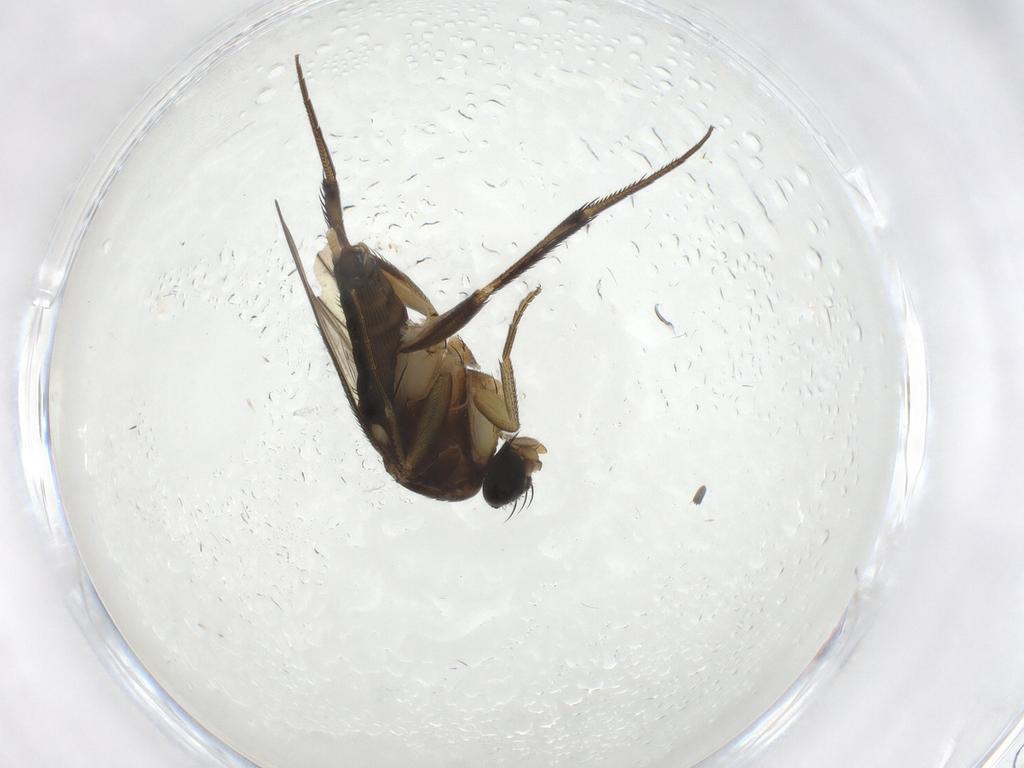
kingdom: Animalia
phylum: Arthropoda
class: Insecta
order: Diptera
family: Phoridae
